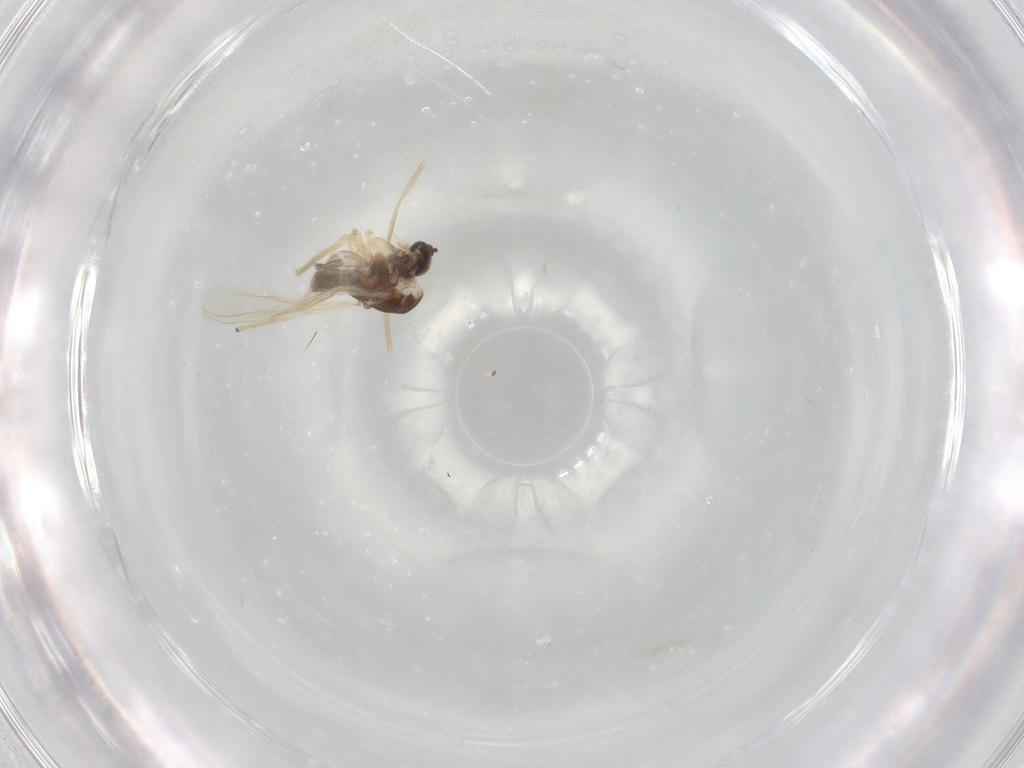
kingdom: Animalia
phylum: Arthropoda
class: Insecta
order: Diptera
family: Chironomidae
